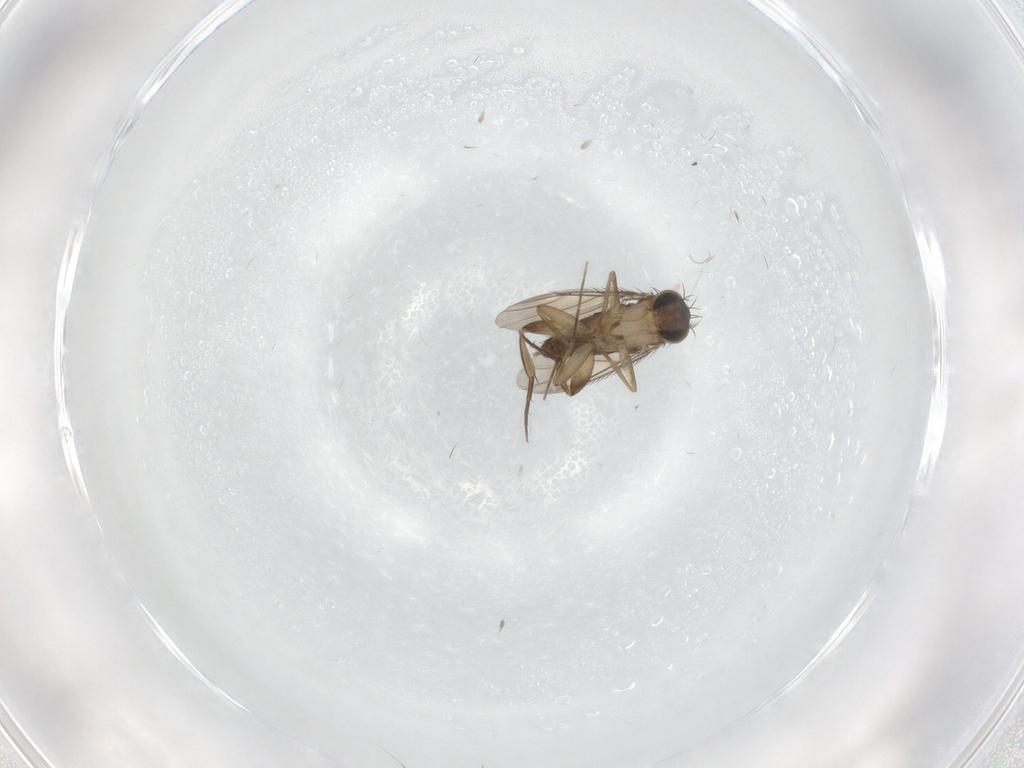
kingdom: Animalia
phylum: Arthropoda
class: Insecta
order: Diptera
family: Phoridae
